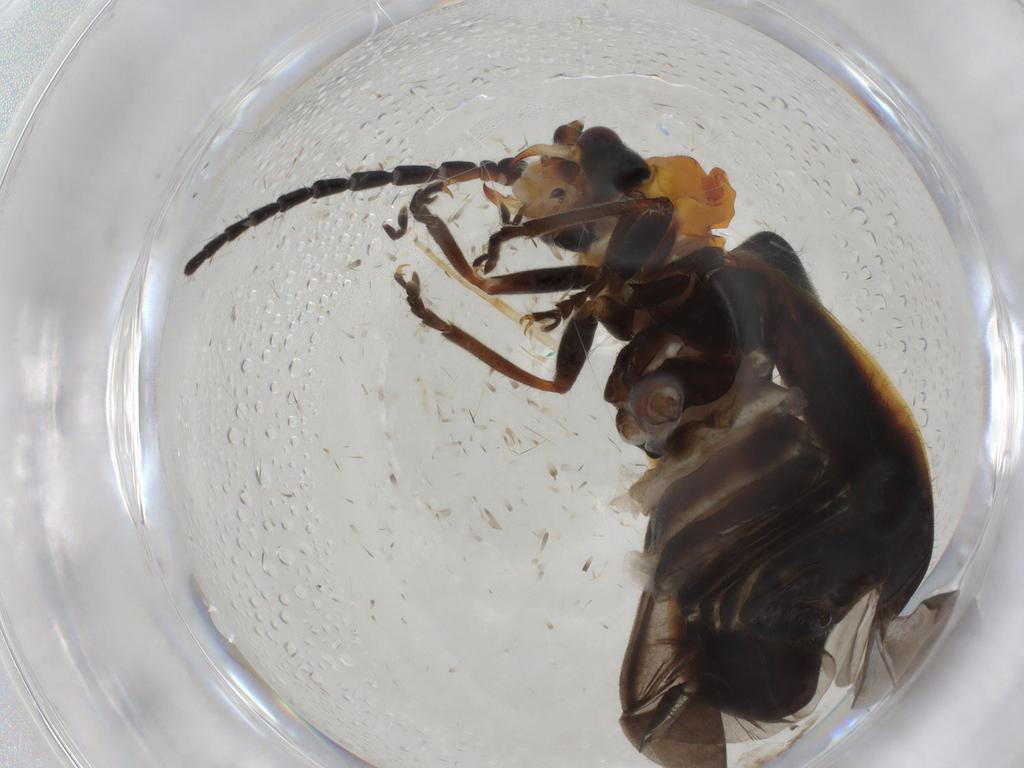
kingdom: Animalia
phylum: Arthropoda
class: Insecta
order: Coleoptera
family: Cantharidae
